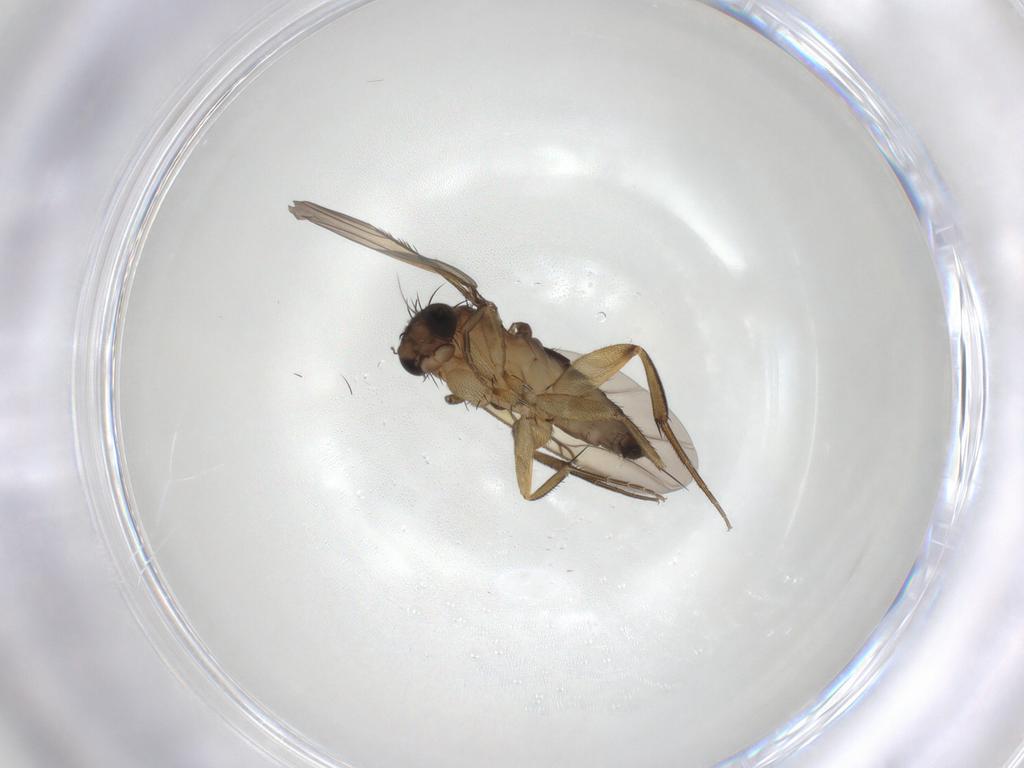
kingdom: Animalia
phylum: Arthropoda
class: Insecta
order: Diptera
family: Phoridae
